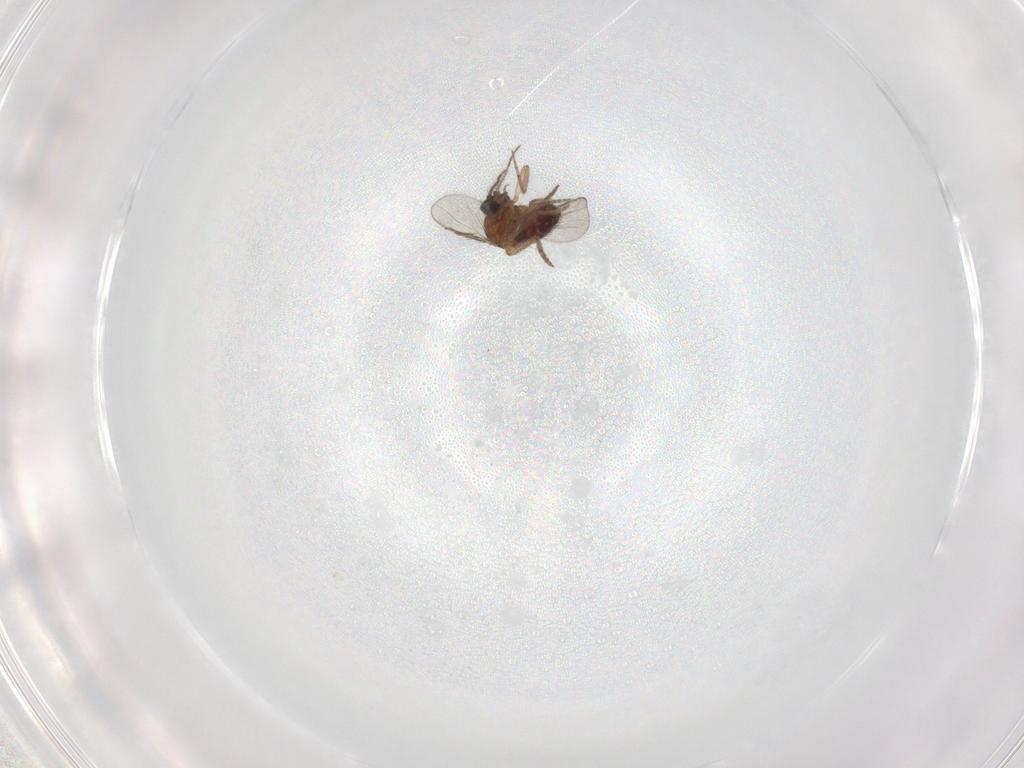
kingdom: Animalia
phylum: Arthropoda
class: Insecta
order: Diptera
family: Ceratopogonidae
